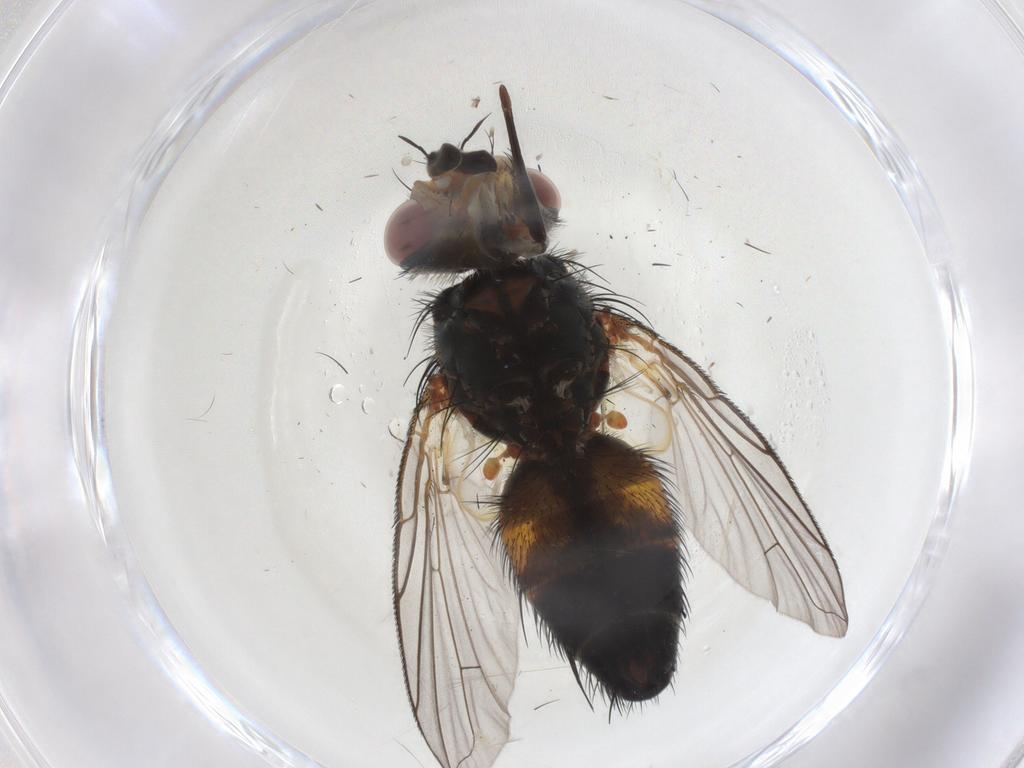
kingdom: Animalia
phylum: Arthropoda
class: Insecta
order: Diptera
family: Tachinidae
